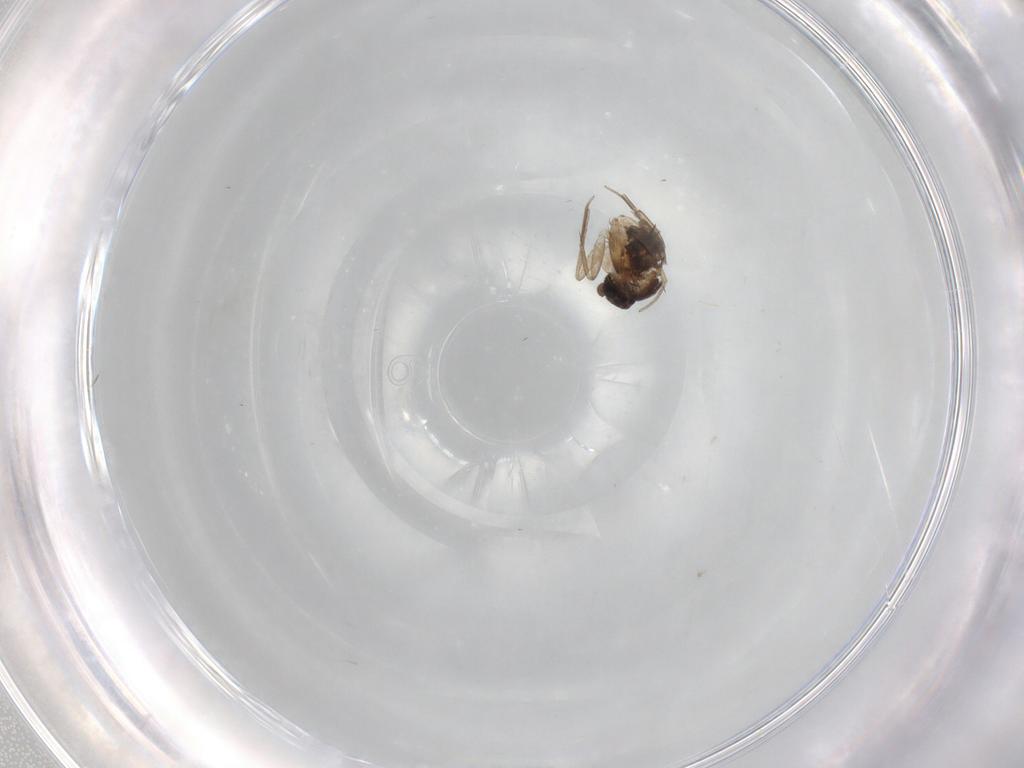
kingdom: Animalia
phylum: Arthropoda
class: Insecta
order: Diptera
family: Phoridae
